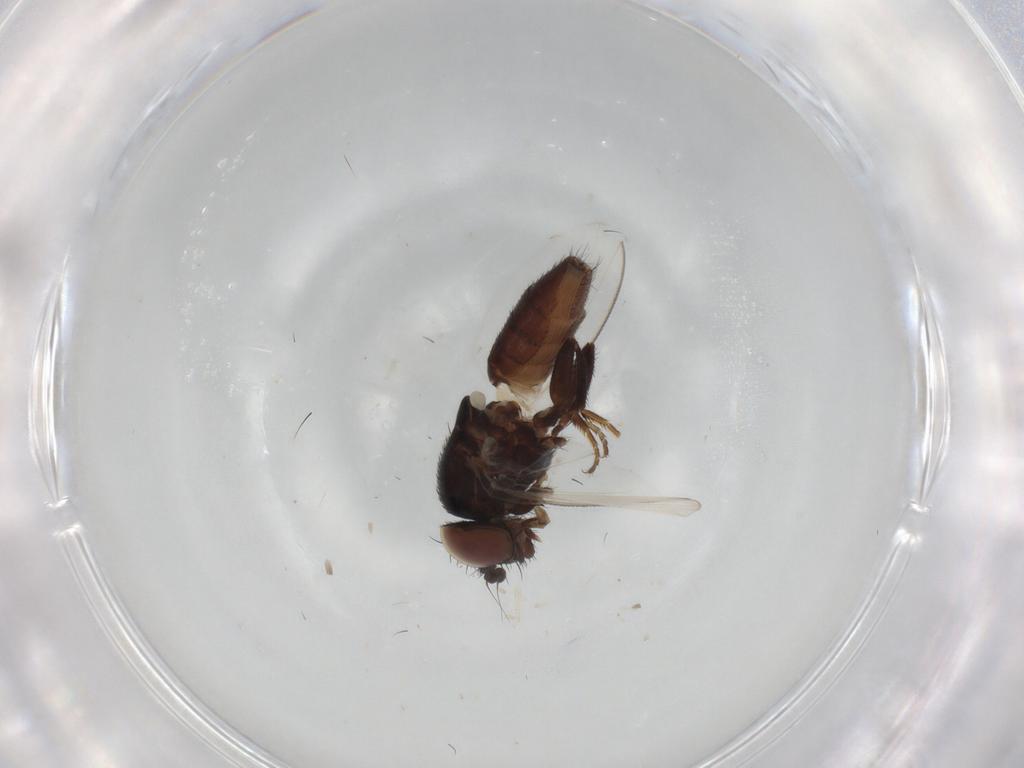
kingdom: Animalia
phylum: Arthropoda
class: Insecta
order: Diptera
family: Milichiidae
